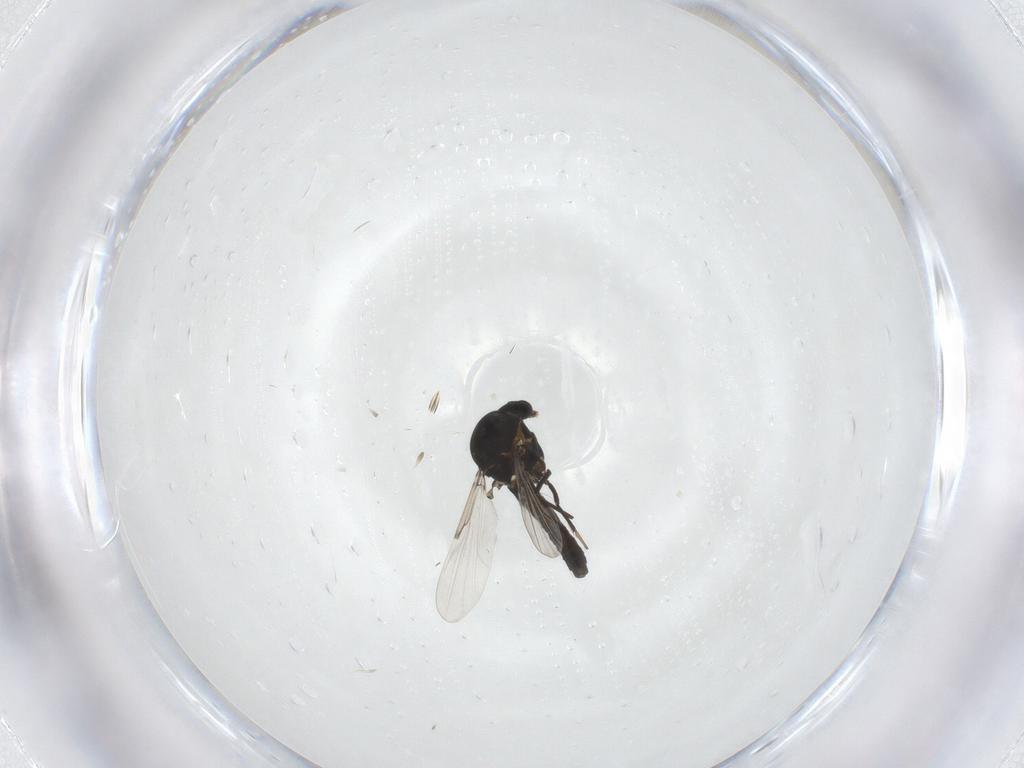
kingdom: Animalia
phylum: Arthropoda
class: Insecta
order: Diptera
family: Ceratopogonidae
